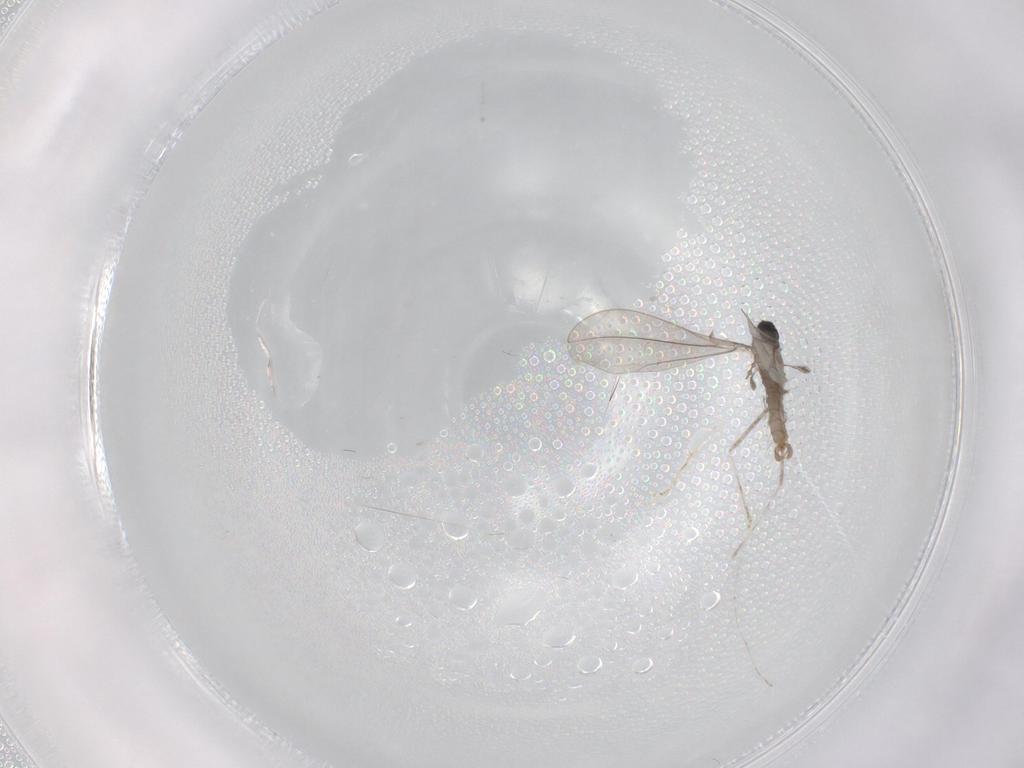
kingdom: Animalia
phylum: Arthropoda
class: Insecta
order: Diptera
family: Cecidomyiidae
